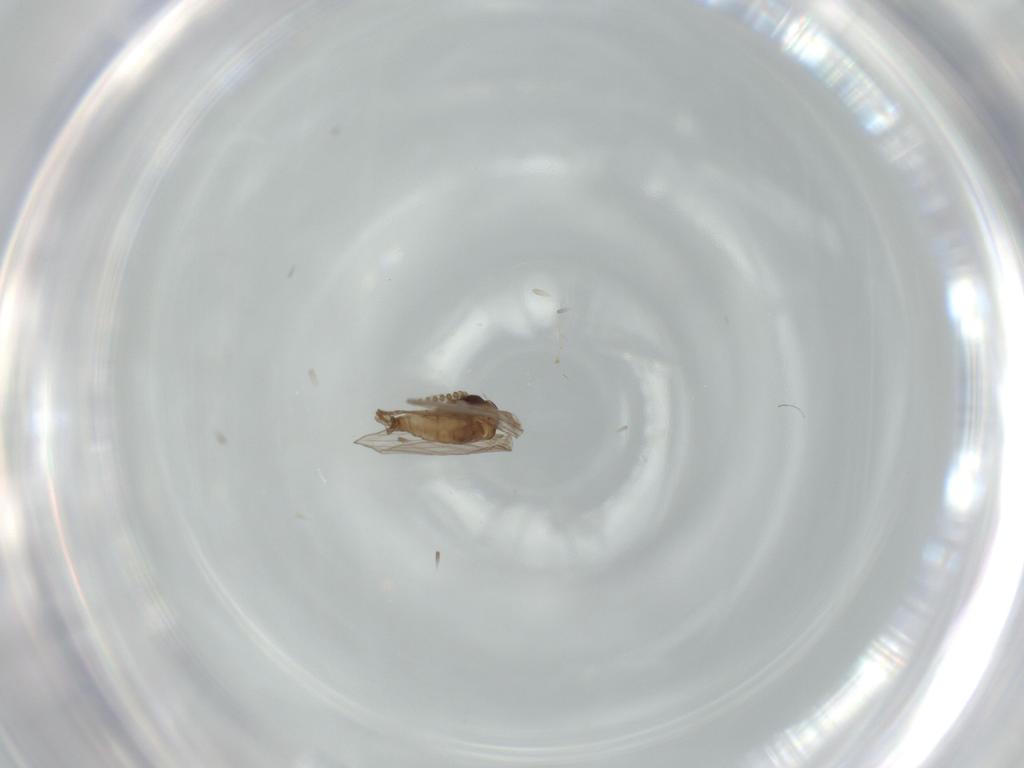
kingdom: Animalia
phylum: Arthropoda
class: Insecta
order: Diptera
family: Psychodidae
